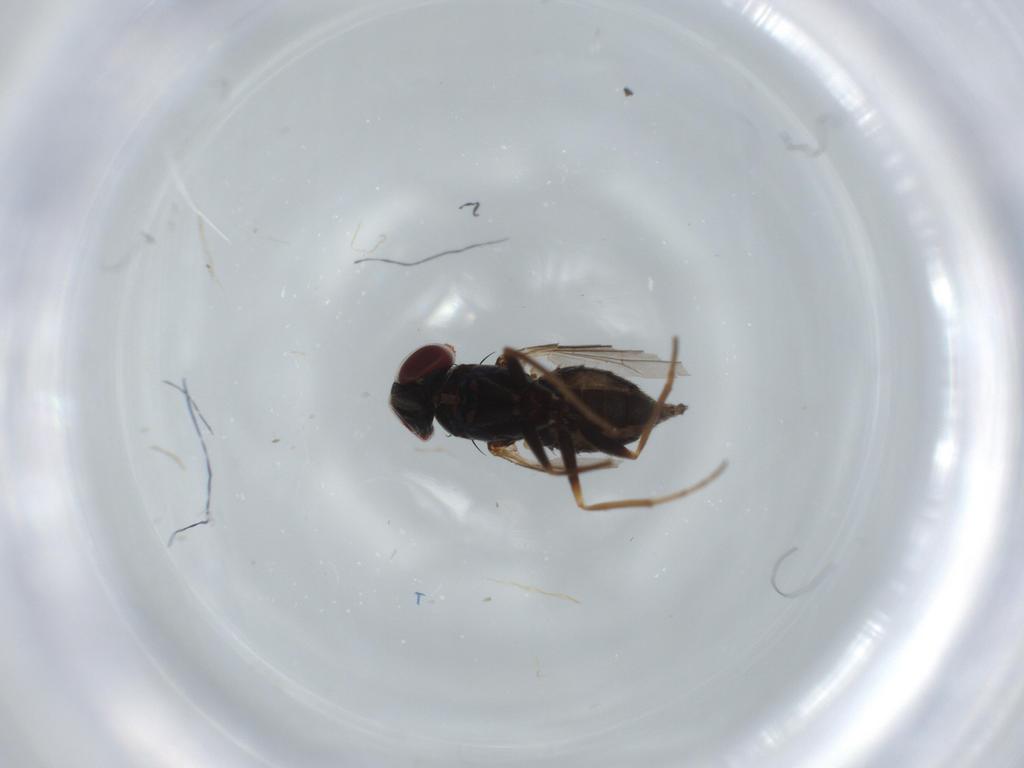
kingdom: Animalia
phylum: Arthropoda
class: Insecta
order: Diptera
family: Dolichopodidae
